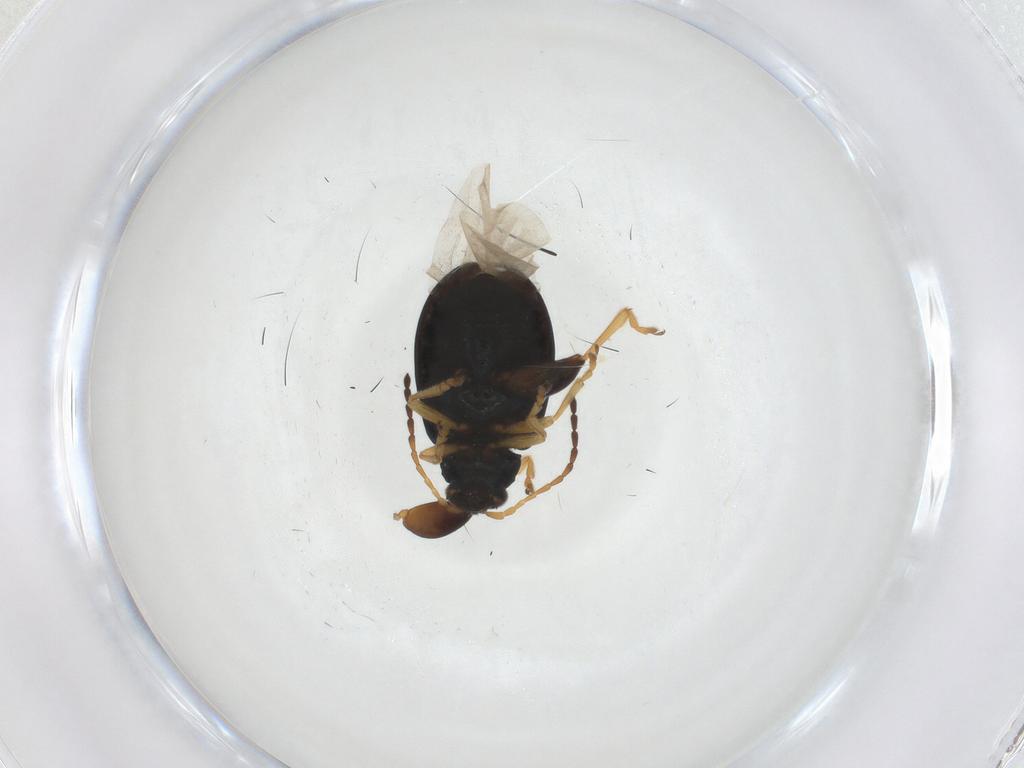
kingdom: Animalia
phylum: Arthropoda
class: Insecta
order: Coleoptera
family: Chrysomelidae
